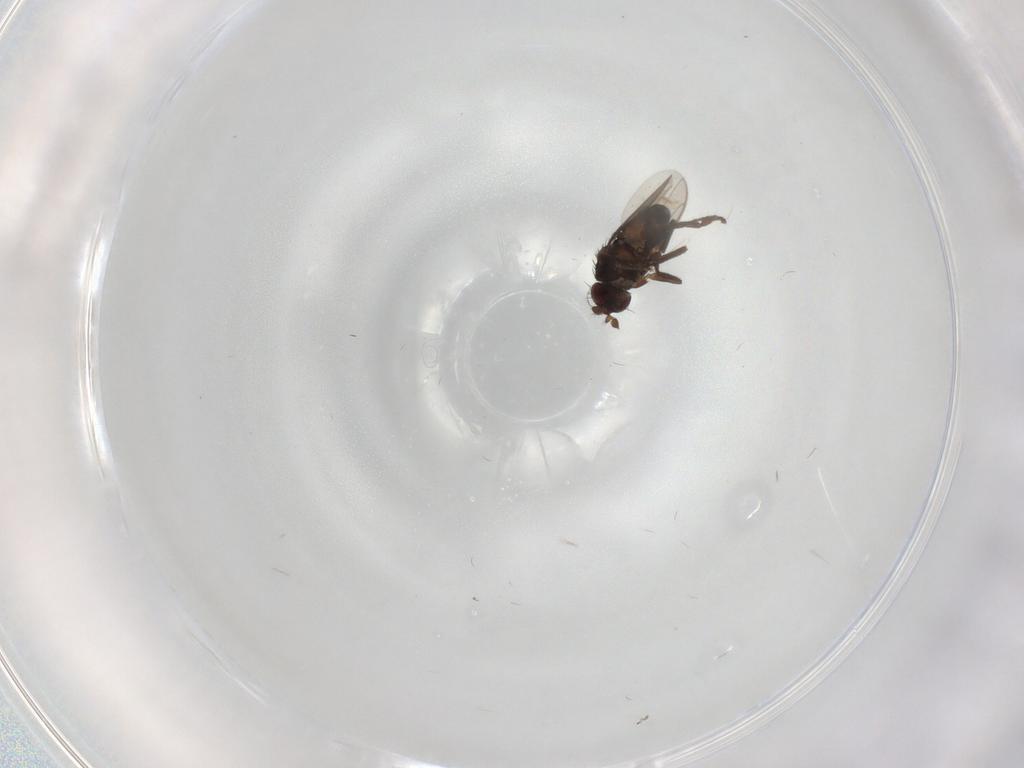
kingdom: Animalia
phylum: Arthropoda
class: Insecta
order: Diptera
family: Sphaeroceridae
